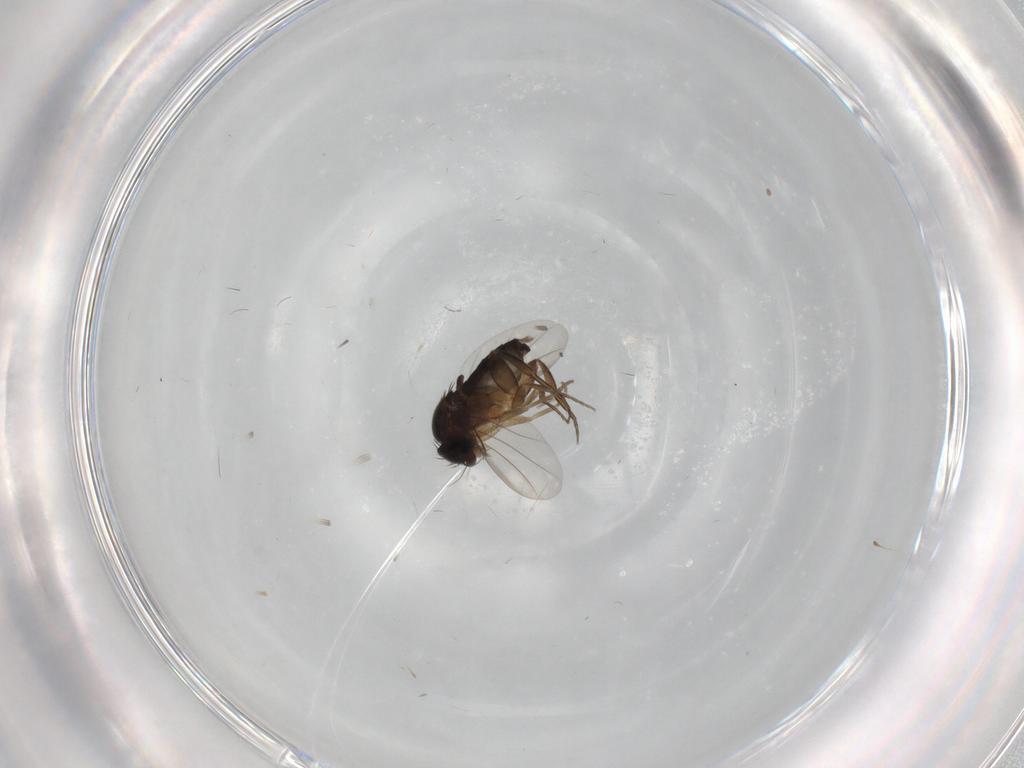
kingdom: Animalia
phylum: Arthropoda
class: Insecta
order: Diptera
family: Phoridae
